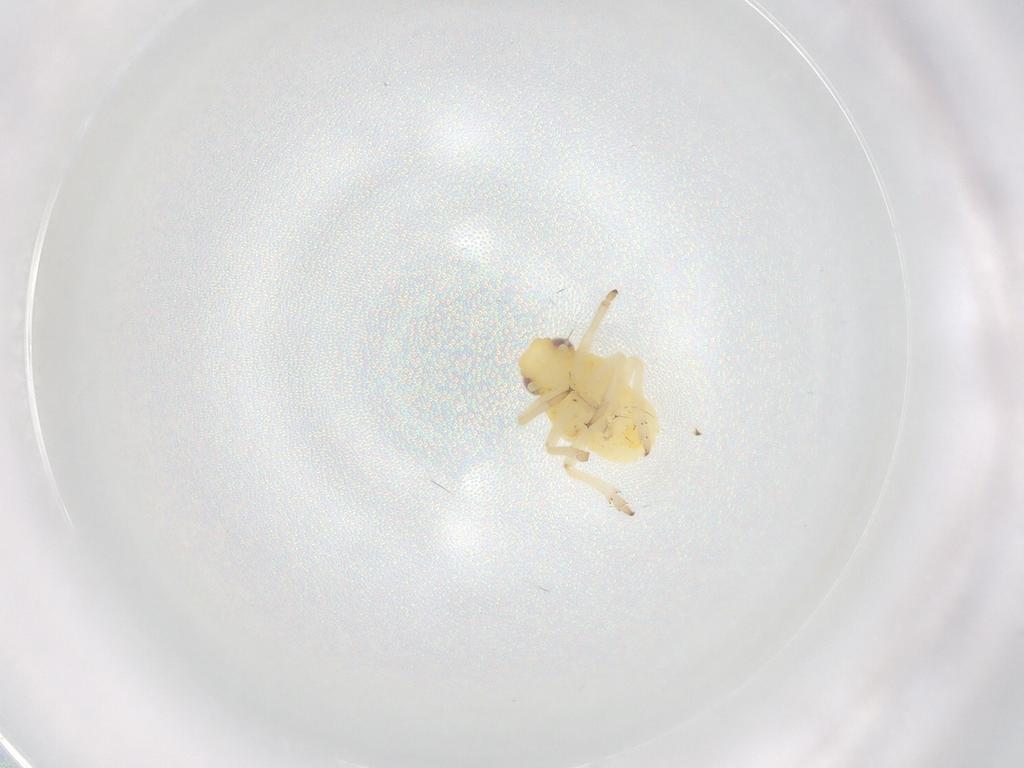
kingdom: Animalia
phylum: Arthropoda
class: Insecta
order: Hemiptera
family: Caliscelidae
